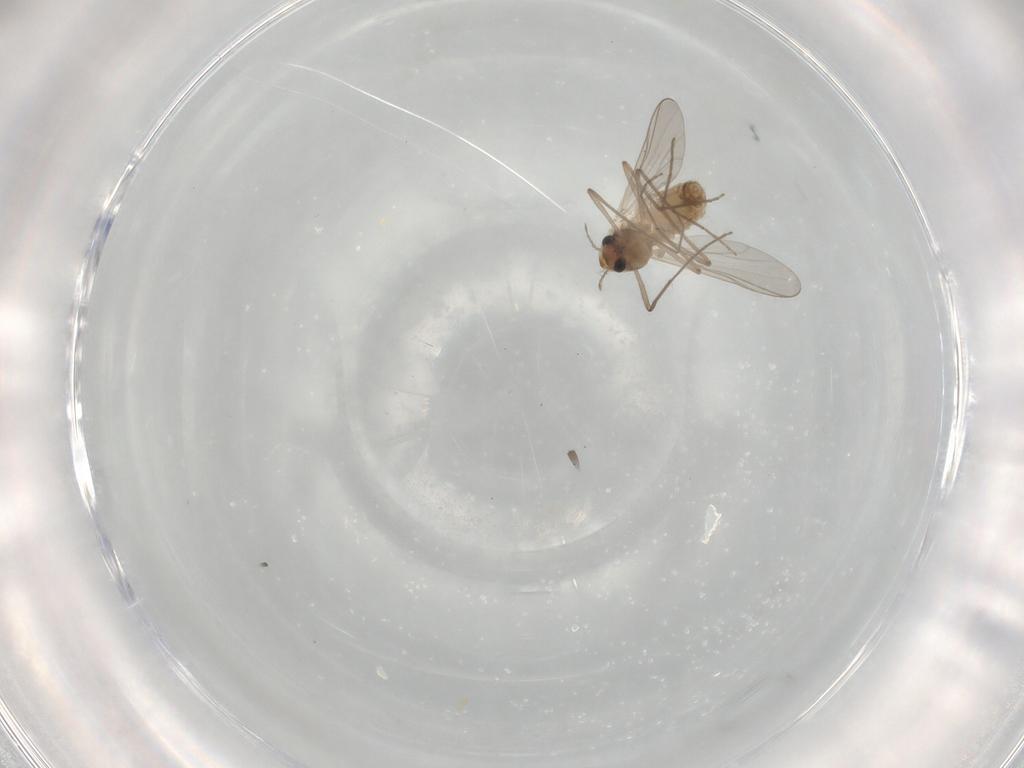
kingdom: Animalia
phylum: Arthropoda
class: Insecta
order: Diptera
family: Chironomidae
